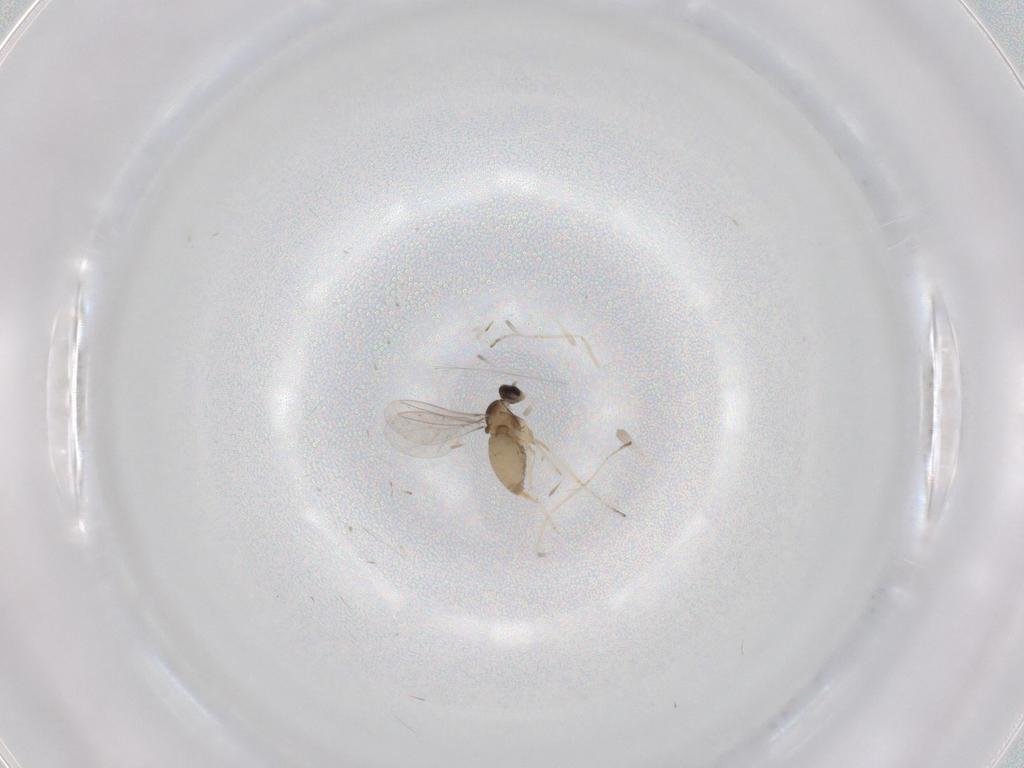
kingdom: Animalia
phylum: Arthropoda
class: Insecta
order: Diptera
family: Cecidomyiidae
